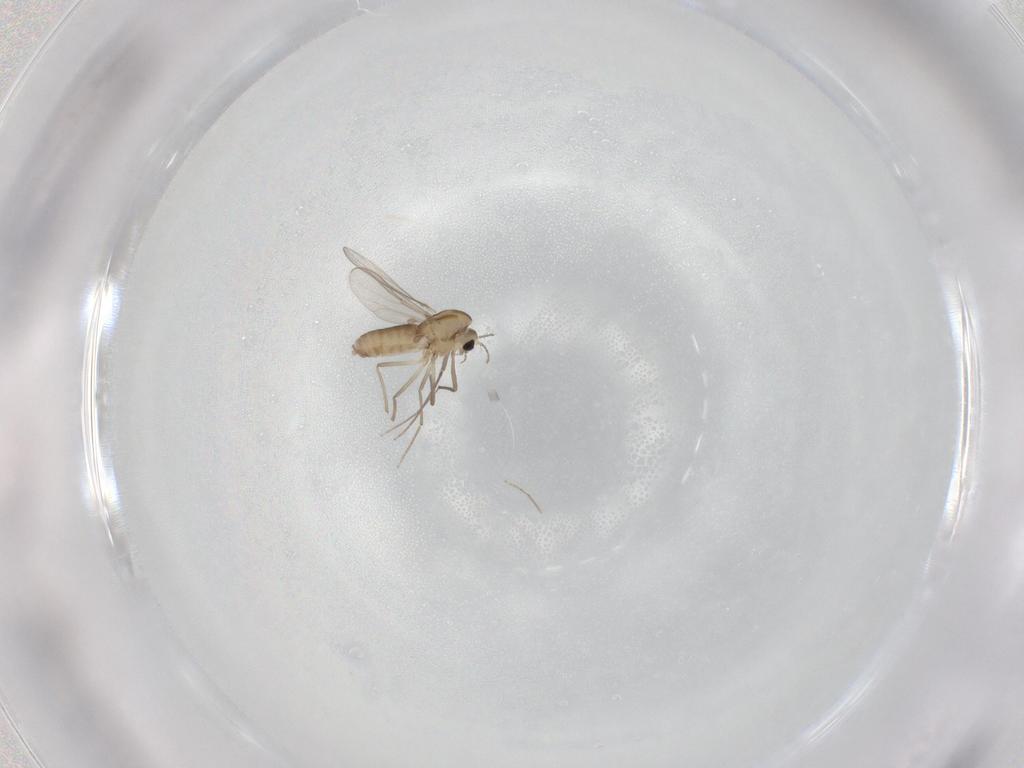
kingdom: Animalia
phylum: Arthropoda
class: Insecta
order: Diptera
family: Chironomidae
